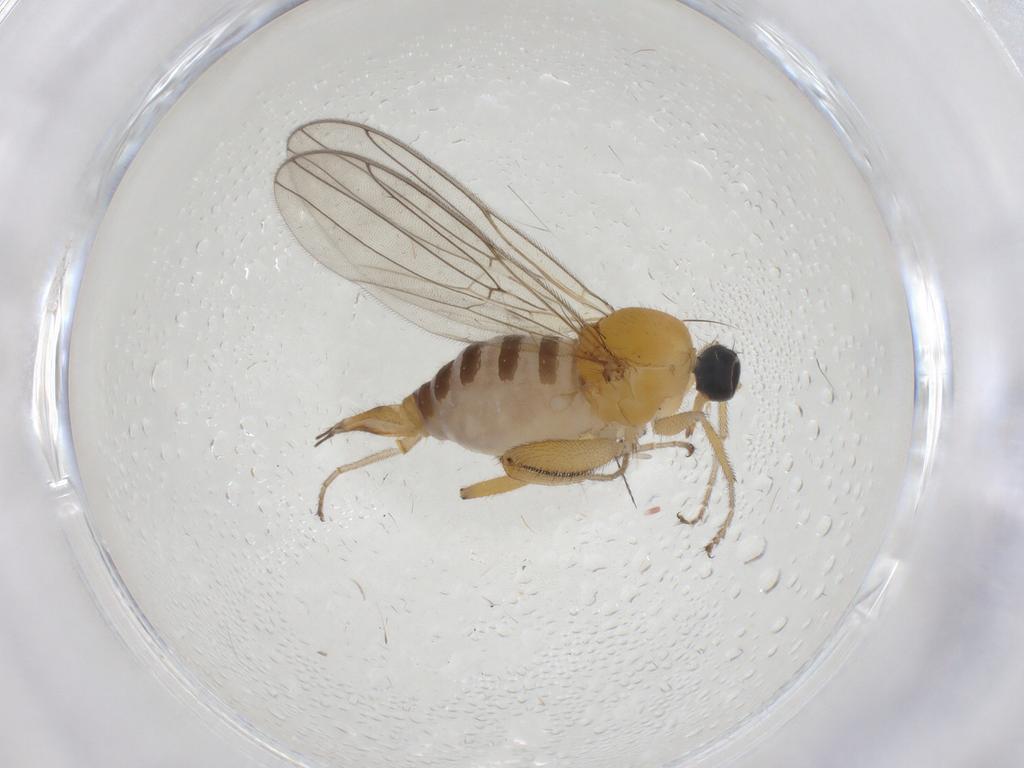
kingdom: Animalia
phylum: Arthropoda
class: Insecta
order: Diptera
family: Hybotidae
